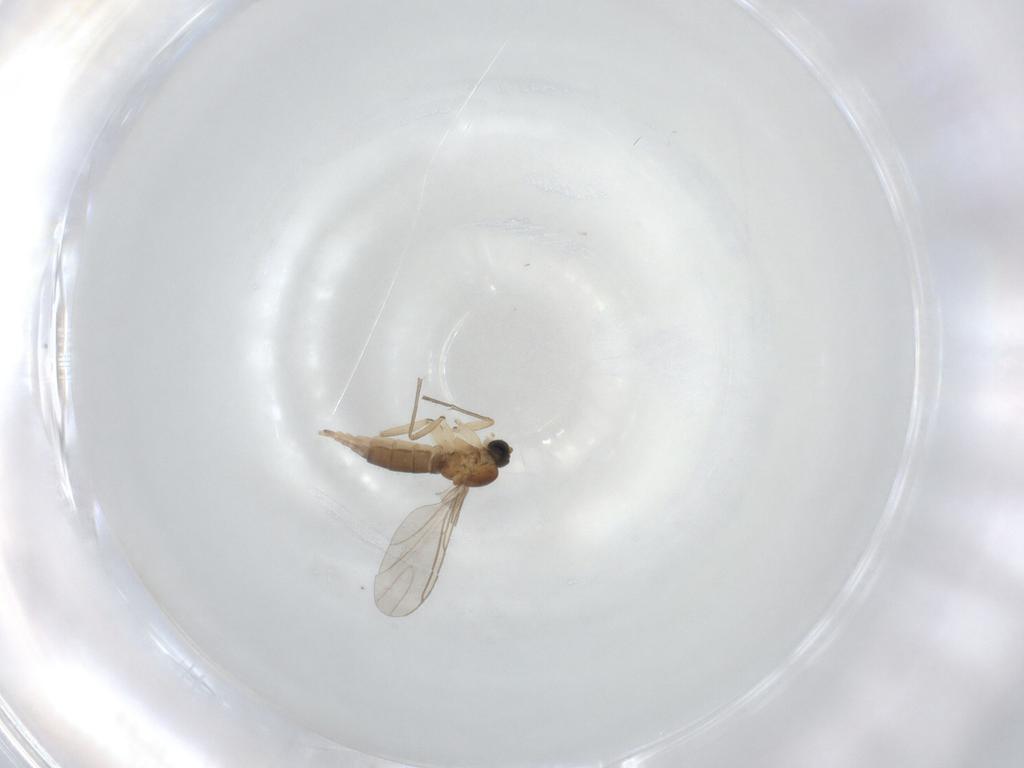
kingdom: Animalia
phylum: Arthropoda
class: Insecta
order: Diptera
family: Sciaridae
